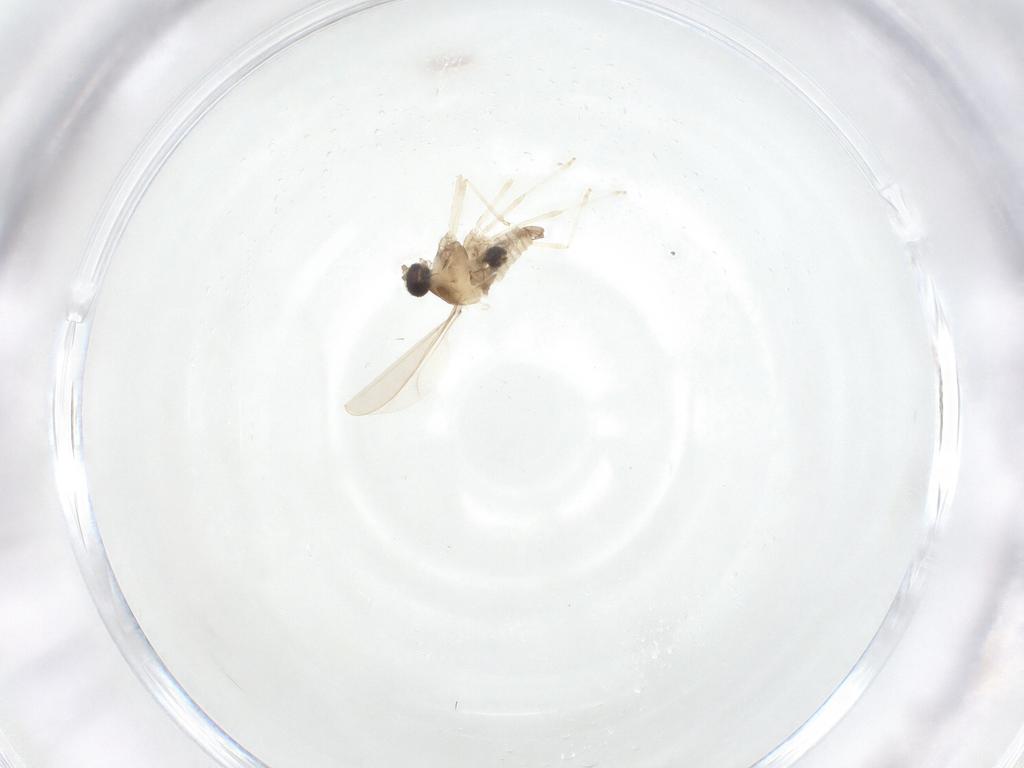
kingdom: Animalia
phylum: Arthropoda
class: Insecta
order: Diptera
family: Cecidomyiidae
